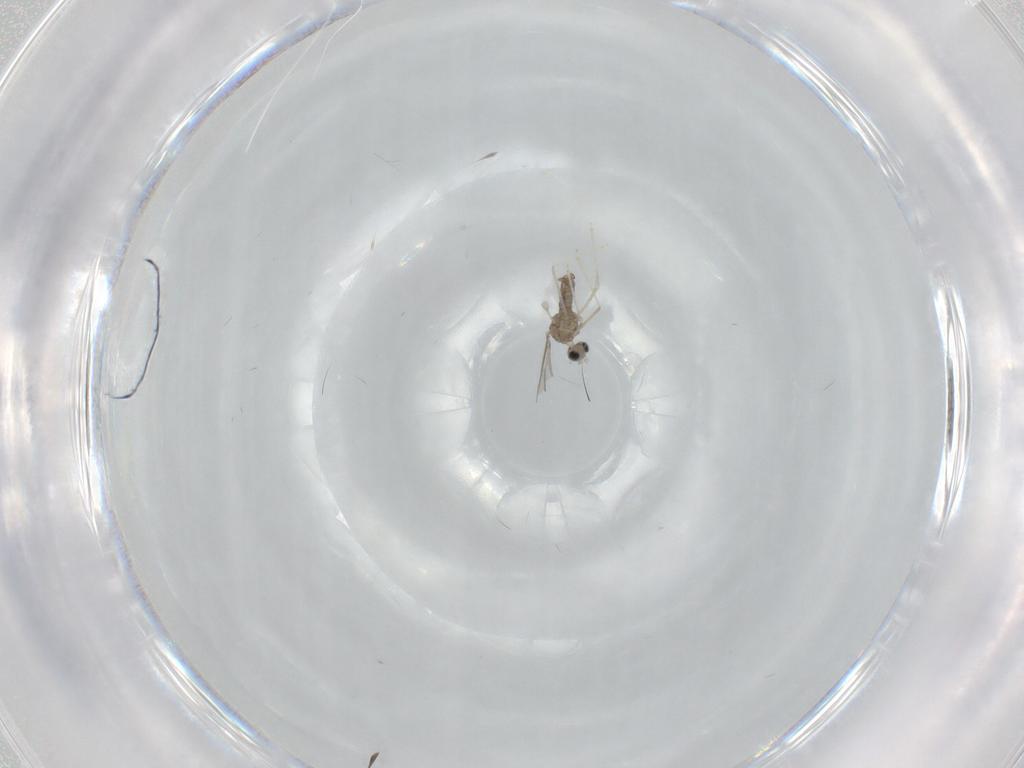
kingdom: Animalia
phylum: Arthropoda
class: Insecta
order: Diptera
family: Cecidomyiidae
